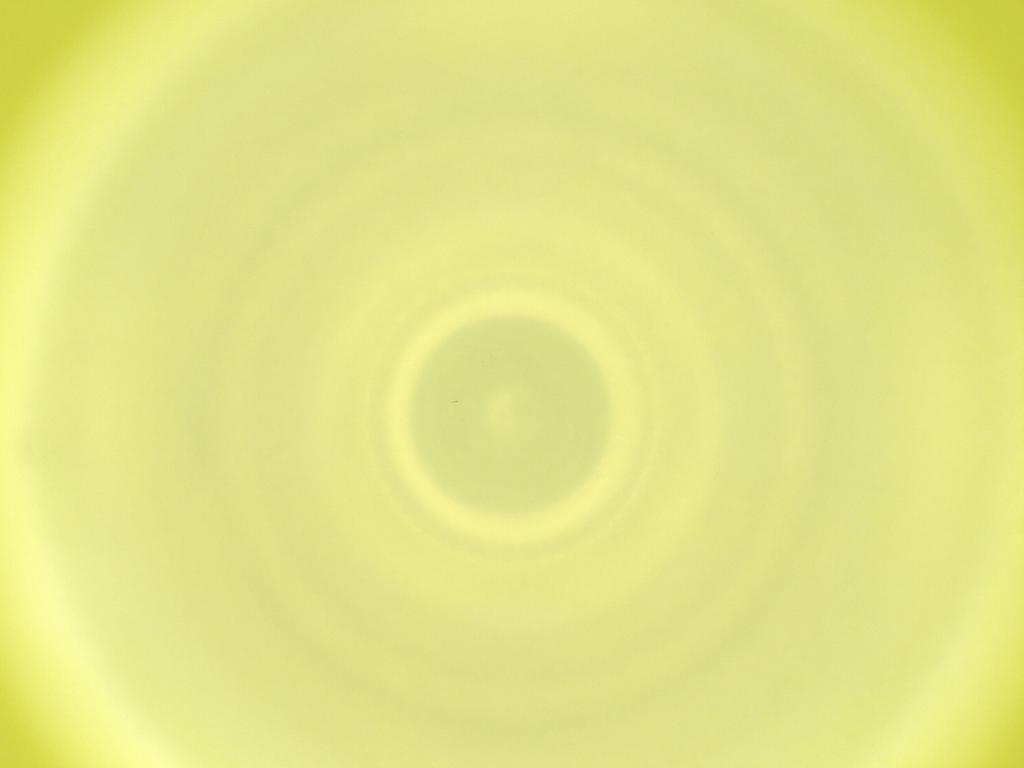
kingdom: Animalia
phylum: Arthropoda
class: Insecta
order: Diptera
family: Cecidomyiidae
